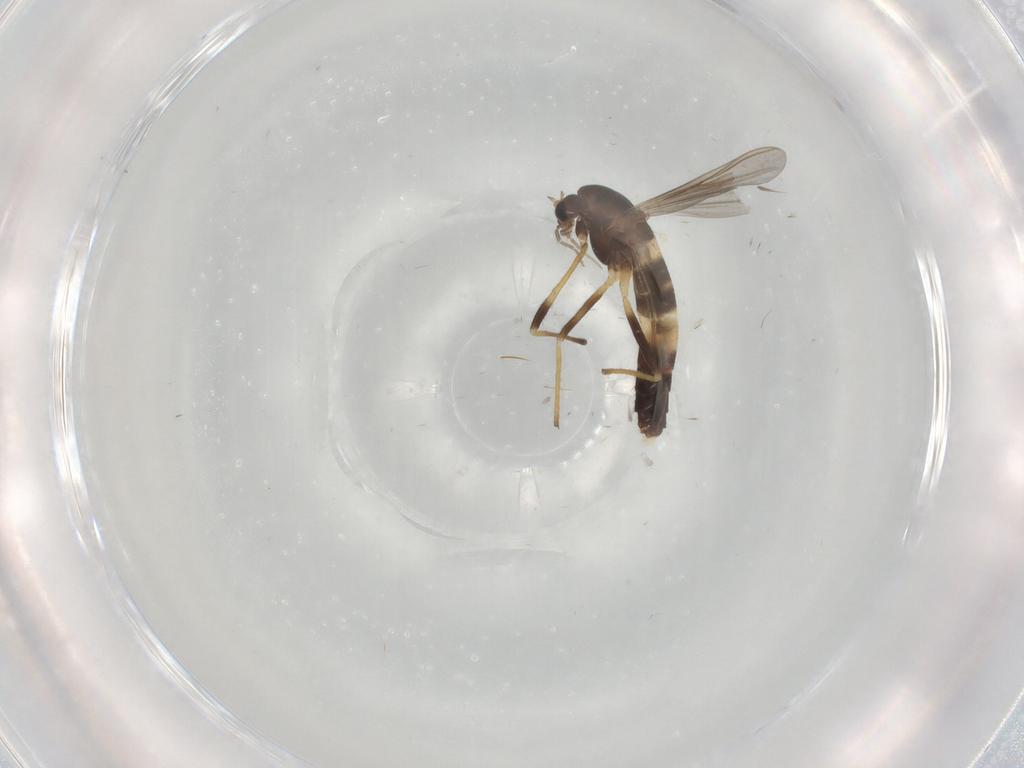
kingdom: Animalia
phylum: Arthropoda
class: Insecta
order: Diptera
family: Chironomidae
